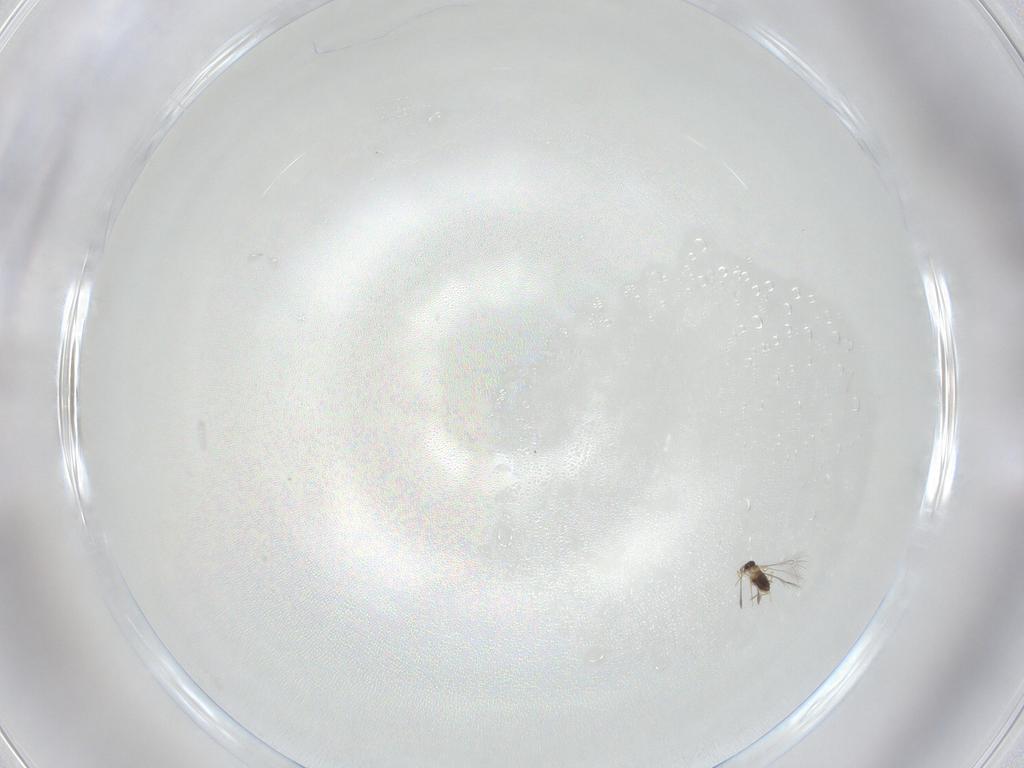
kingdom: Animalia
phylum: Arthropoda
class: Insecta
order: Hymenoptera
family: Mymaridae
